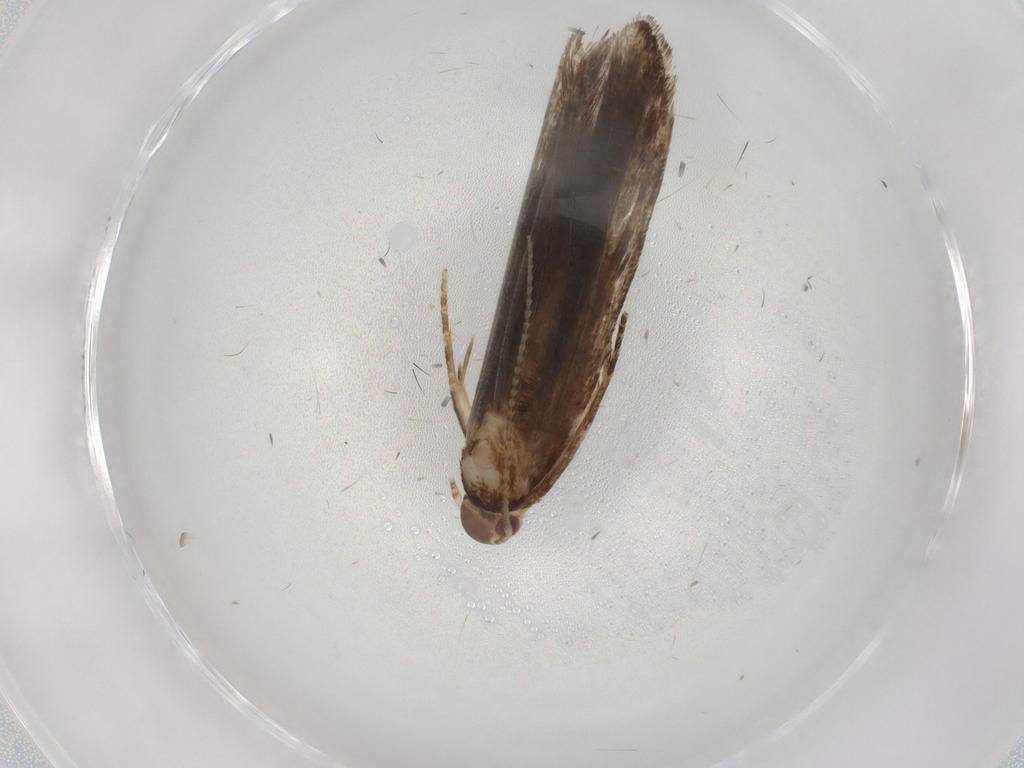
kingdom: Animalia
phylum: Arthropoda
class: Insecta
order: Lepidoptera
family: Gelechiidae
